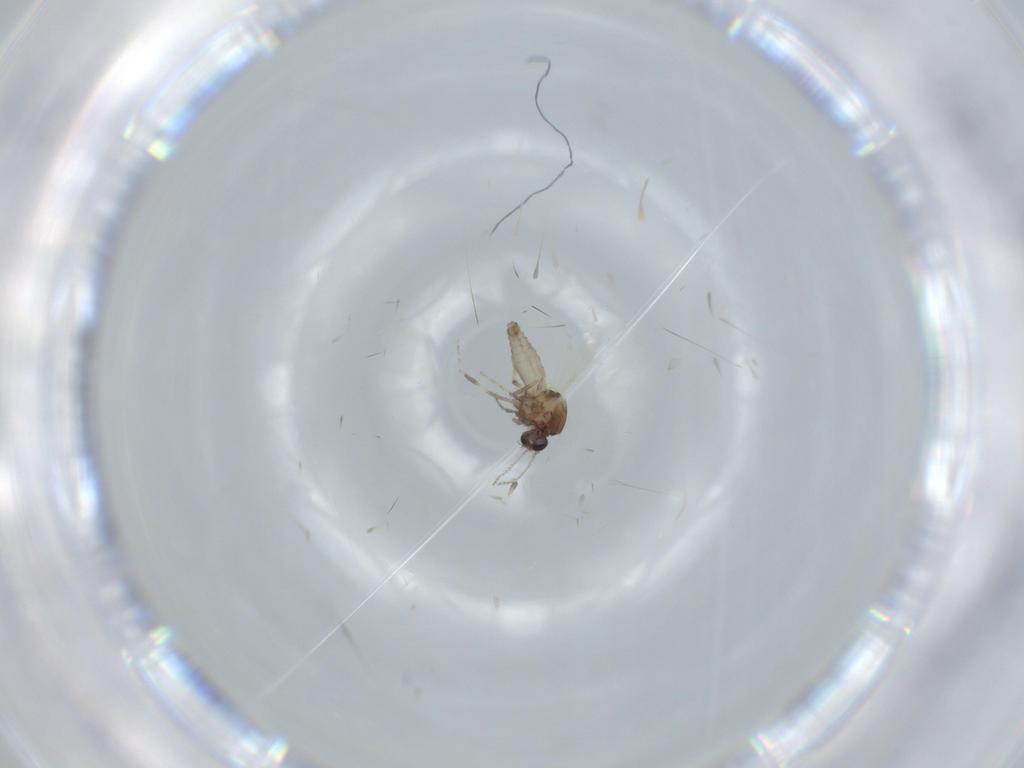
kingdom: Animalia
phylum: Arthropoda
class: Insecta
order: Diptera
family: Ceratopogonidae
